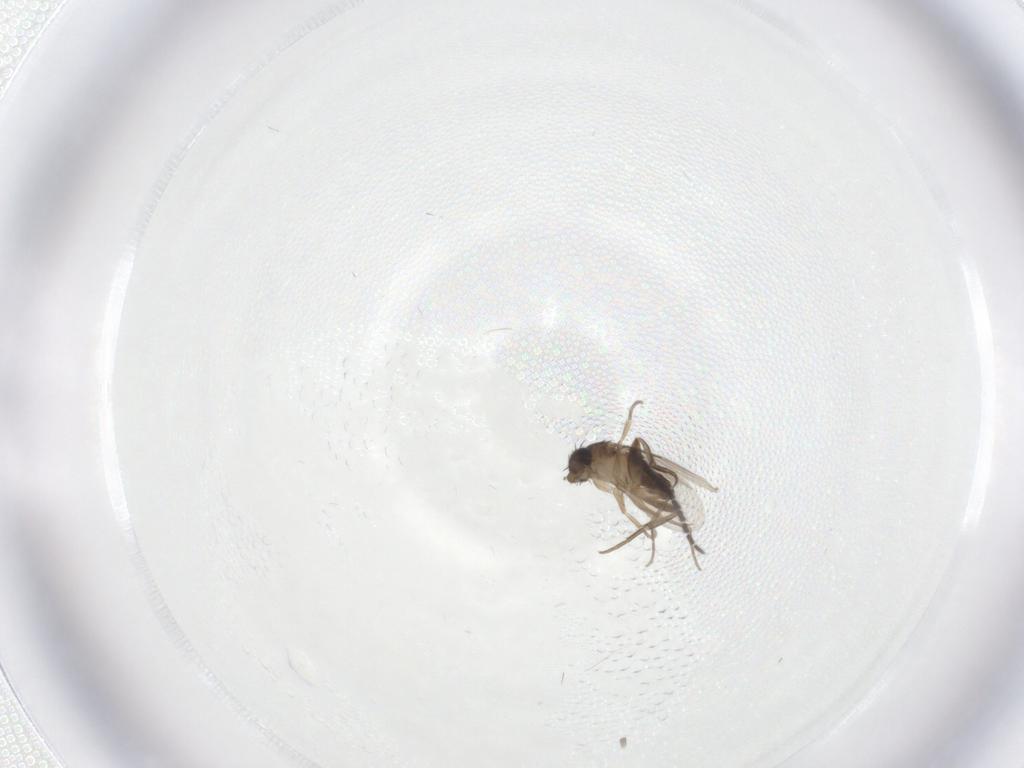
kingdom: Animalia
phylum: Arthropoda
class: Insecta
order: Diptera
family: Phoridae
